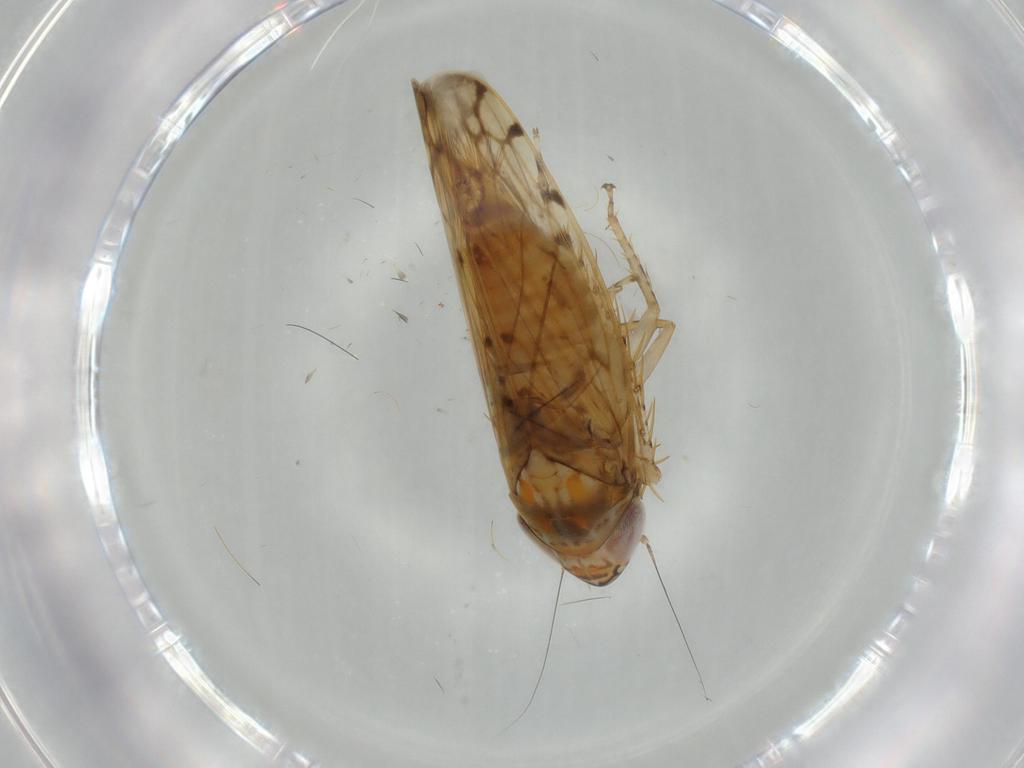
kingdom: Animalia
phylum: Arthropoda
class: Insecta
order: Hemiptera
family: Cicadellidae
